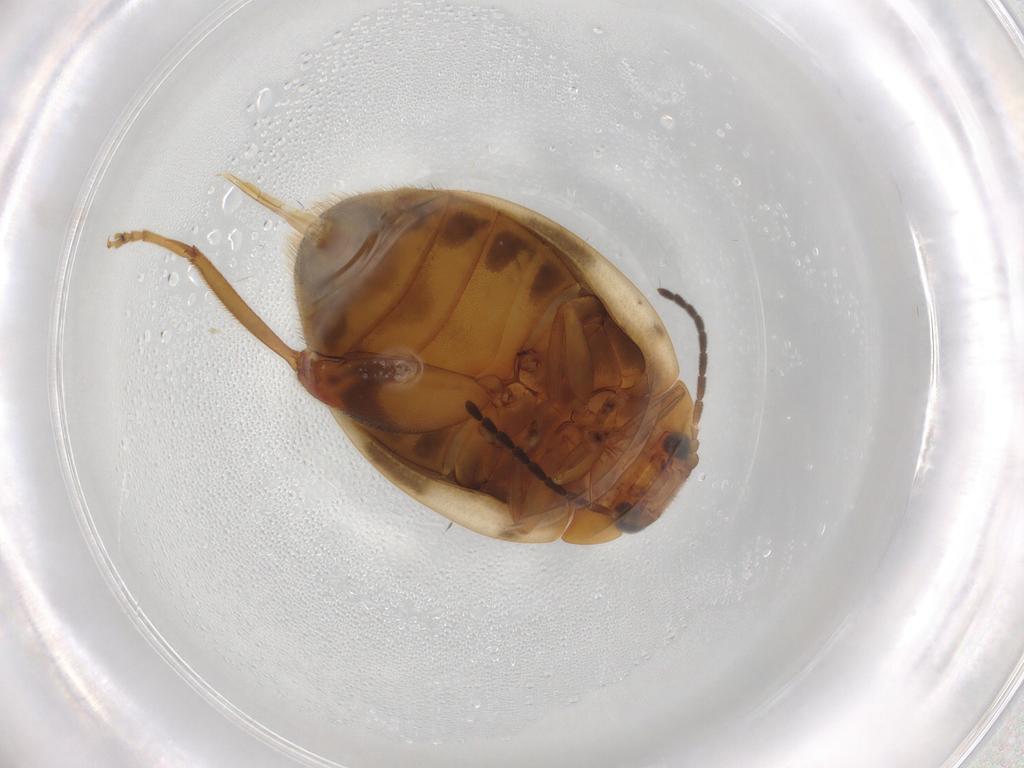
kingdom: Animalia
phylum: Arthropoda
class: Insecta
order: Coleoptera
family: Scirtidae
